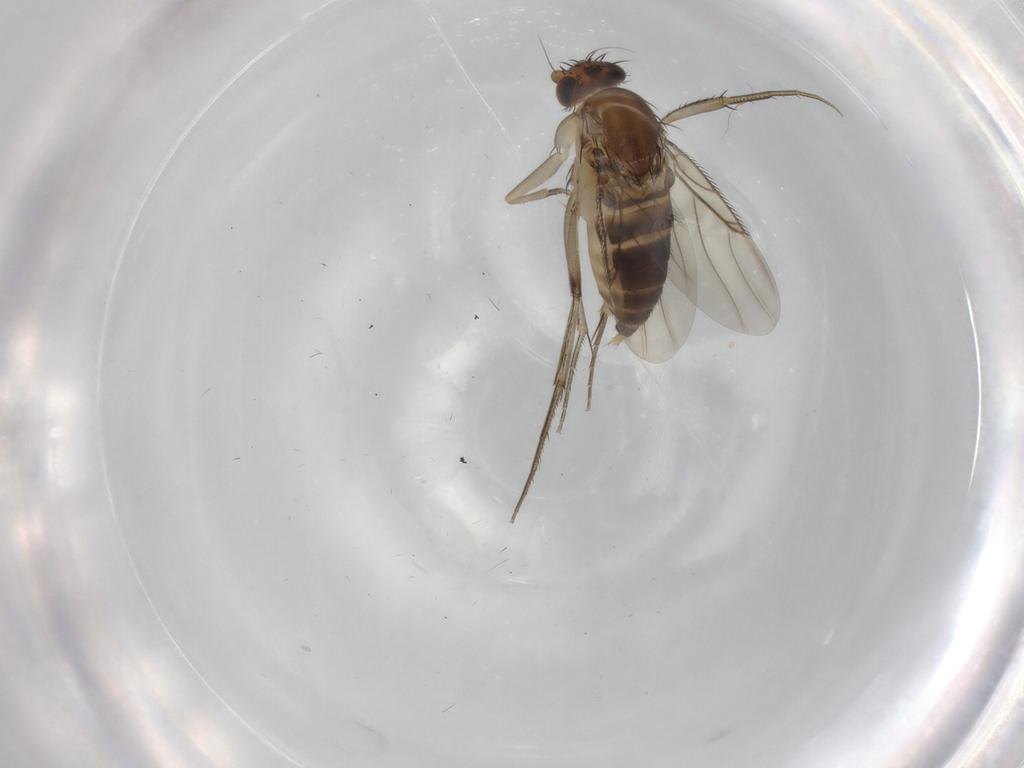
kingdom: Animalia
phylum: Arthropoda
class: Insecta
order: Diptera
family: Phoridae
